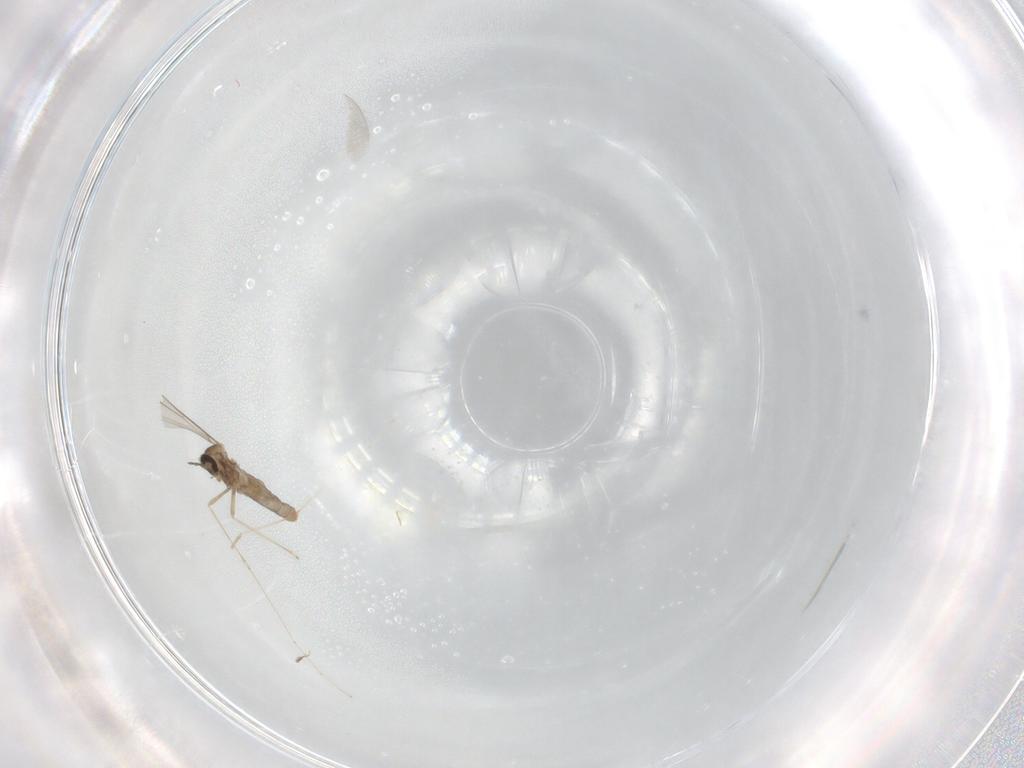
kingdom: Animalia
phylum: Arthropoda
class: Insecta
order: Diptera
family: Cecidomyiidae
